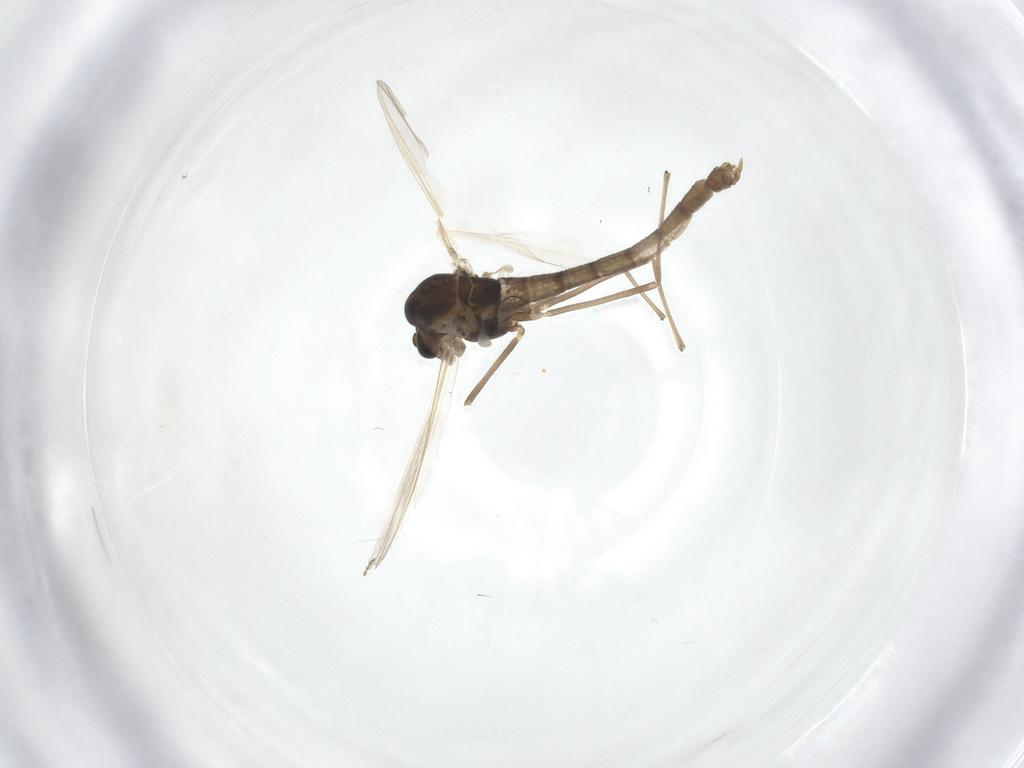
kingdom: Animalia
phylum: Arthropoda
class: Insecta
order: Diptera
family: Chironomidae
